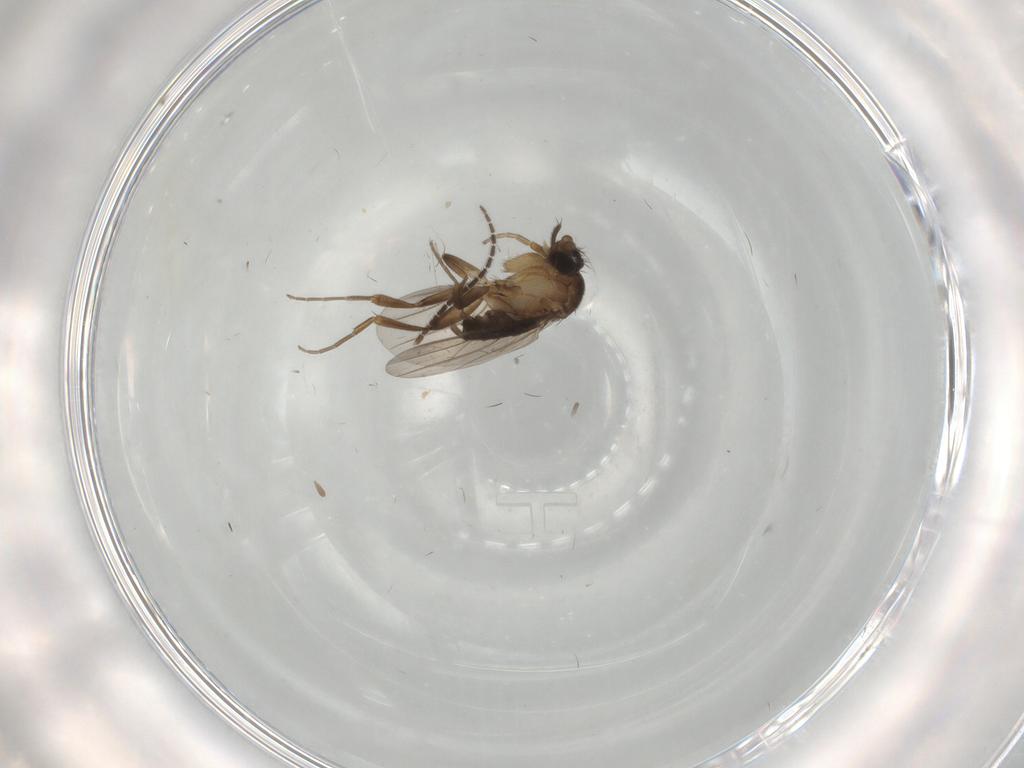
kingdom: Animalia
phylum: Arthropoda
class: Insecta
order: Diptera
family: Phoridae
